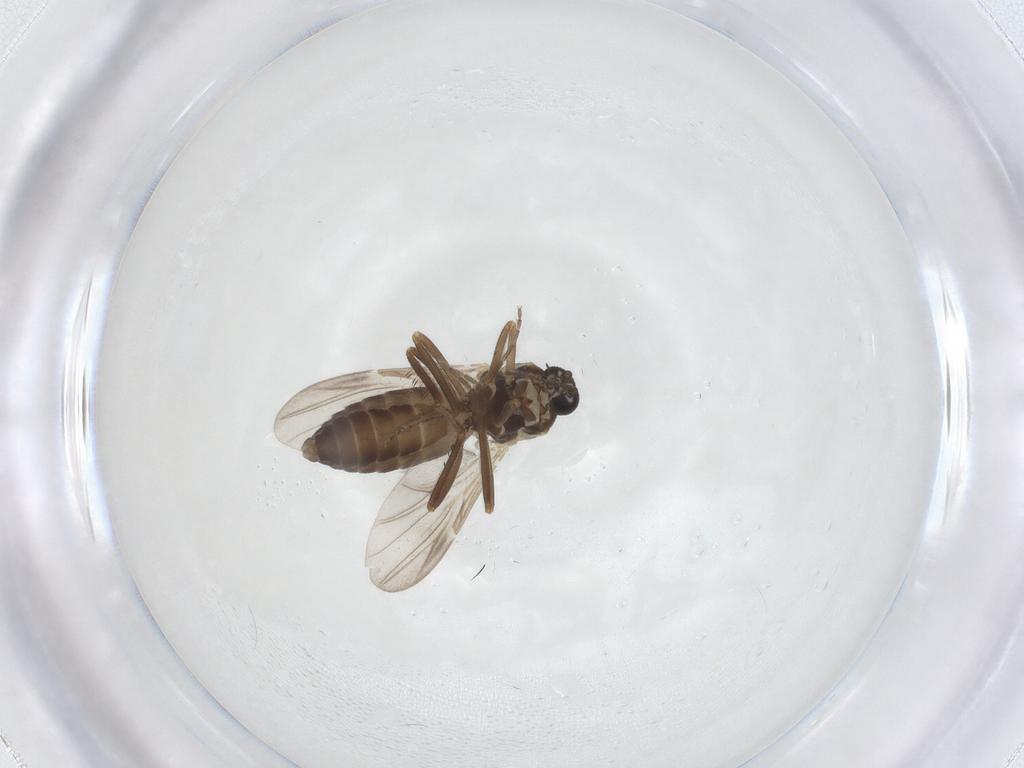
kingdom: Animalia
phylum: Arthropoda
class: Insecta
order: Diptera
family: Ceratopogonidae
